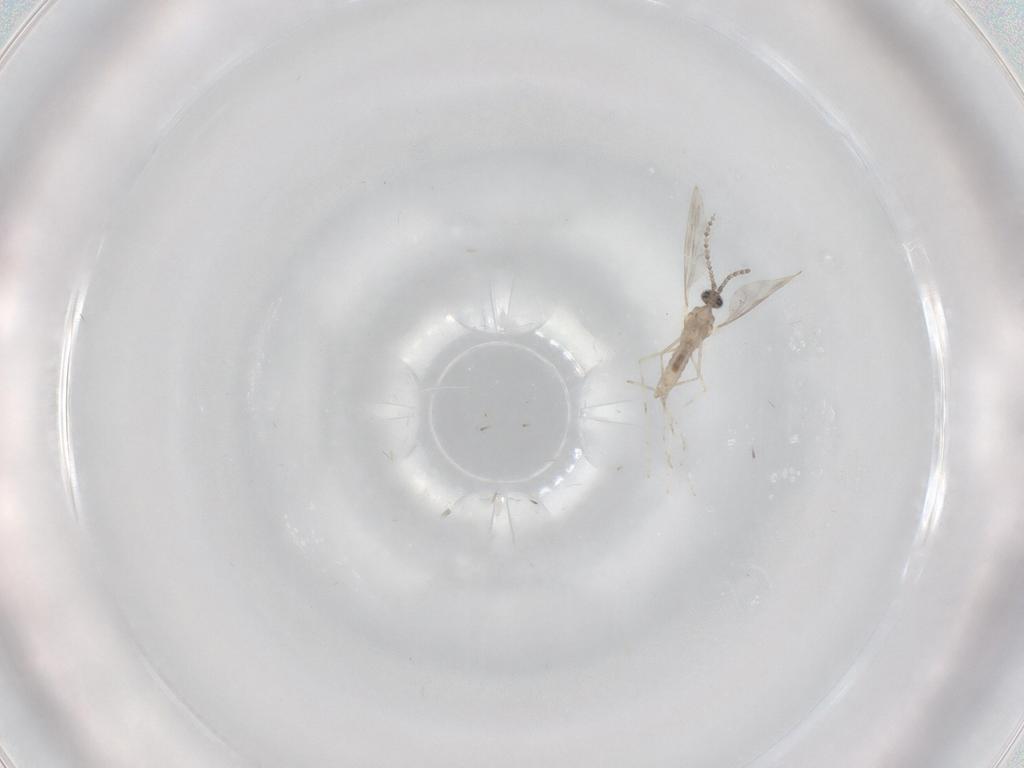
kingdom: Animalia
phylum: Arthropoda
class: Insecta
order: Diptera
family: Cecidomyiidae
